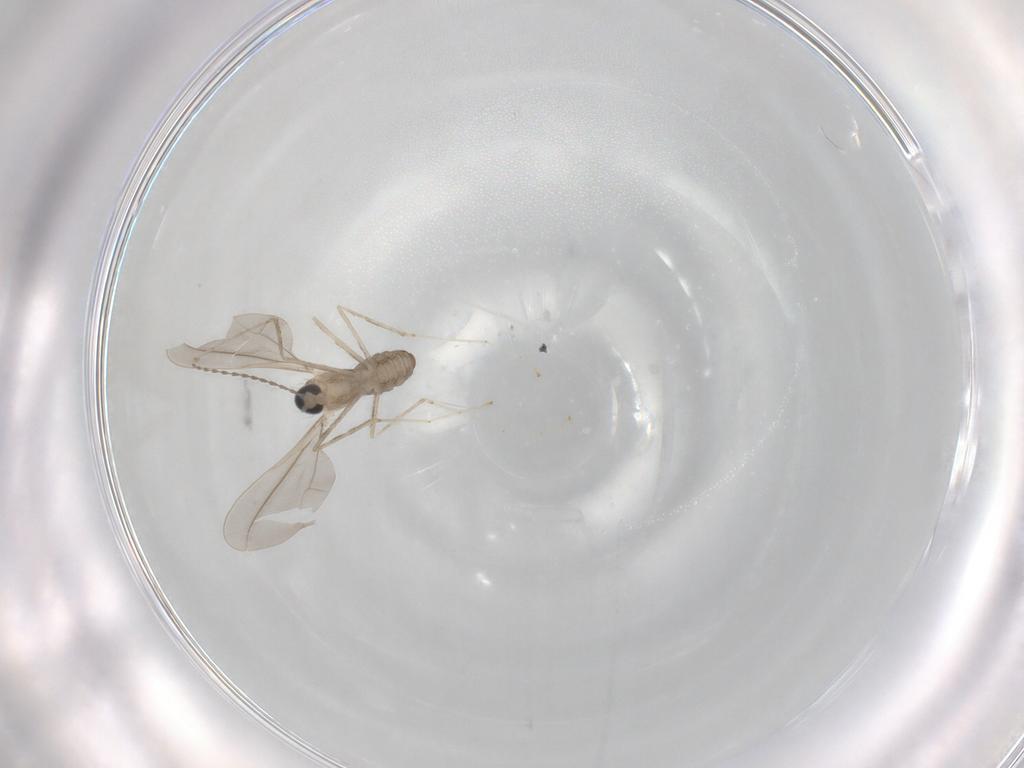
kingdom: Animalia
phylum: Arthropoda
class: Insecta
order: Diptera
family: Cecidomyiidae
